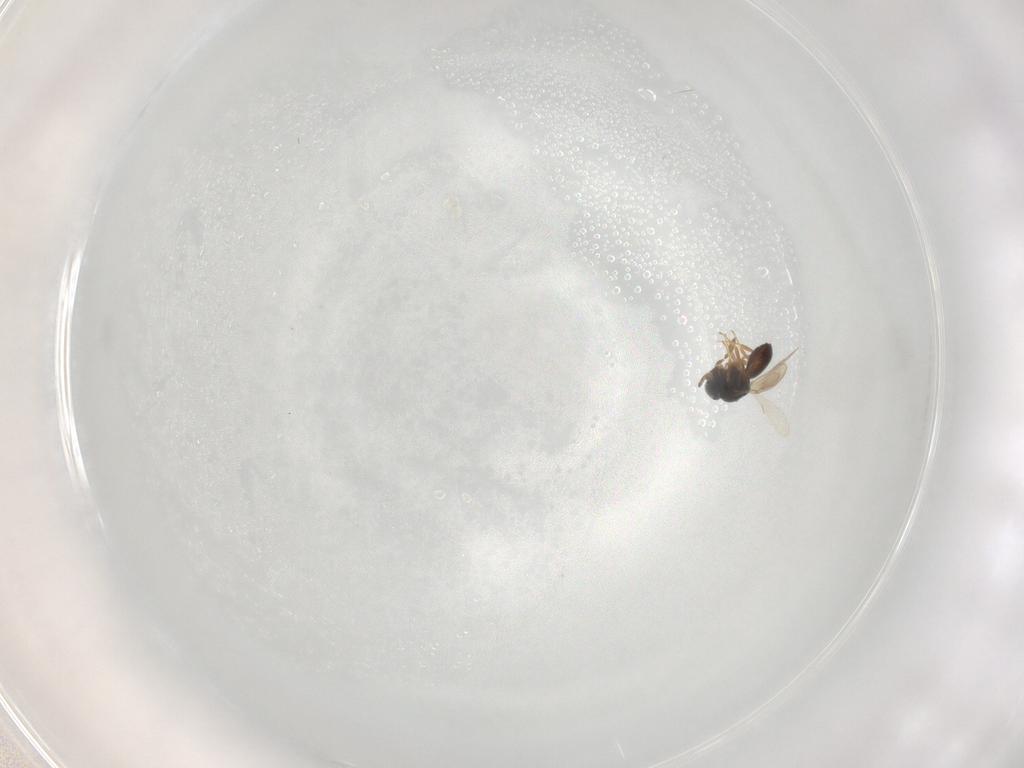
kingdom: Animalia
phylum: Arthropoda
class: Insecta
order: Hymenoptera
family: Scelionidae
